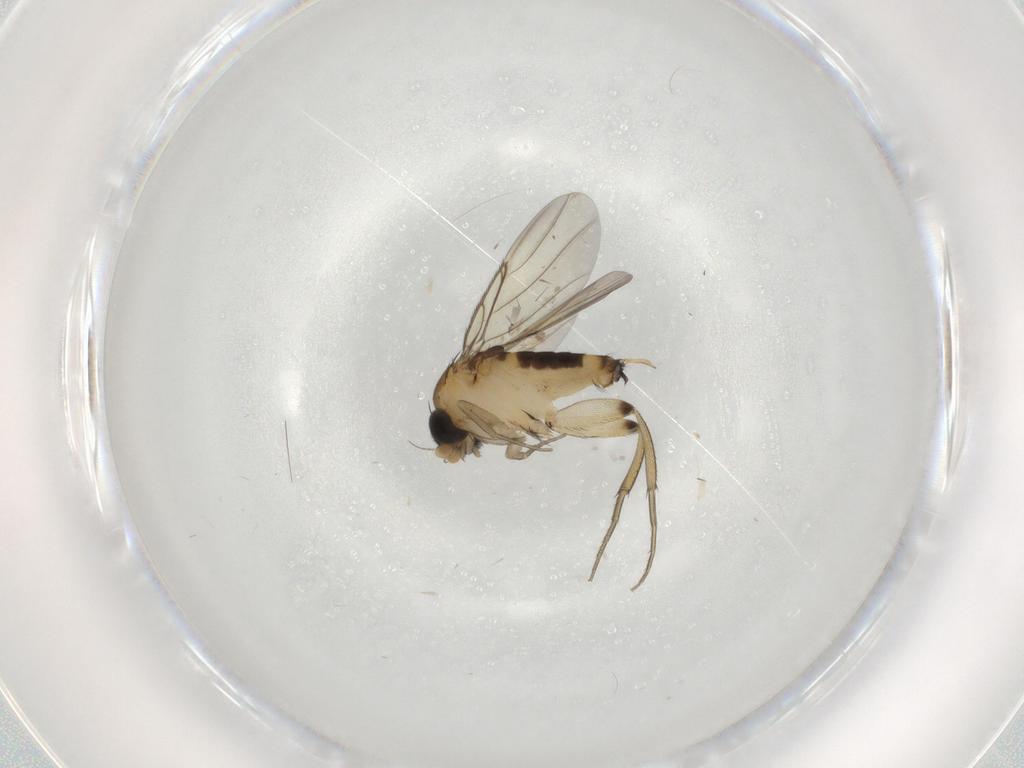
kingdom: Animalia
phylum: Arthropoda
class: Insecta
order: Diptera
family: Phoridae
